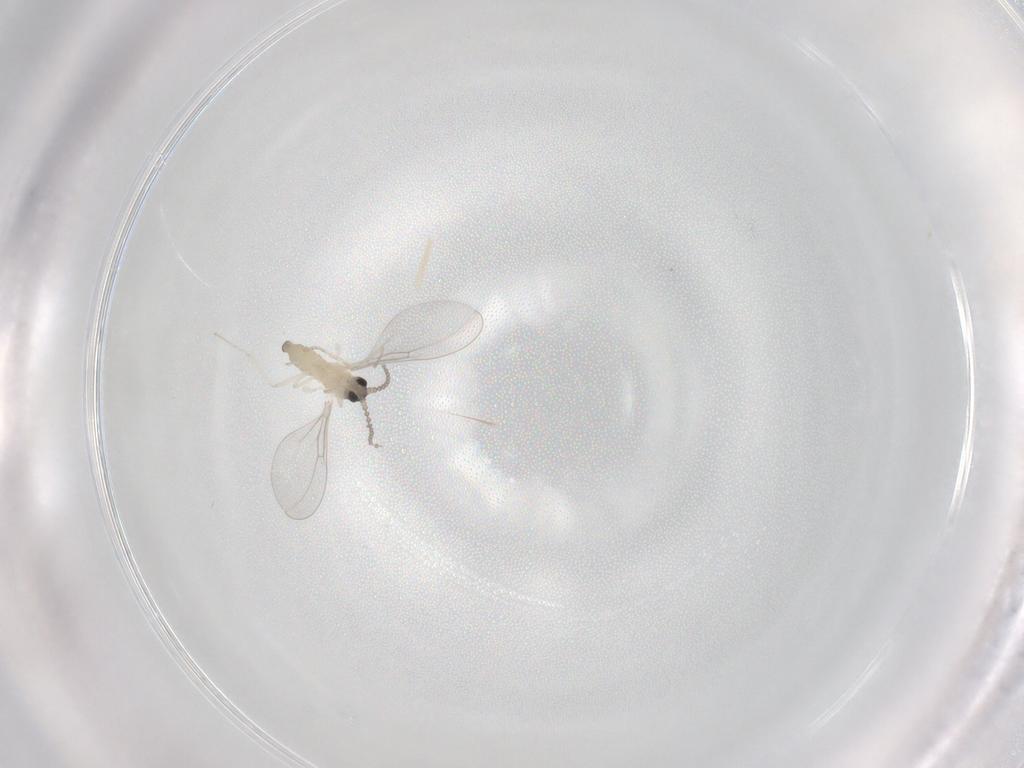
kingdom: Animalia
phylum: Arthropoda
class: Insecta
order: Diptera
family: Cecidomyiidae
